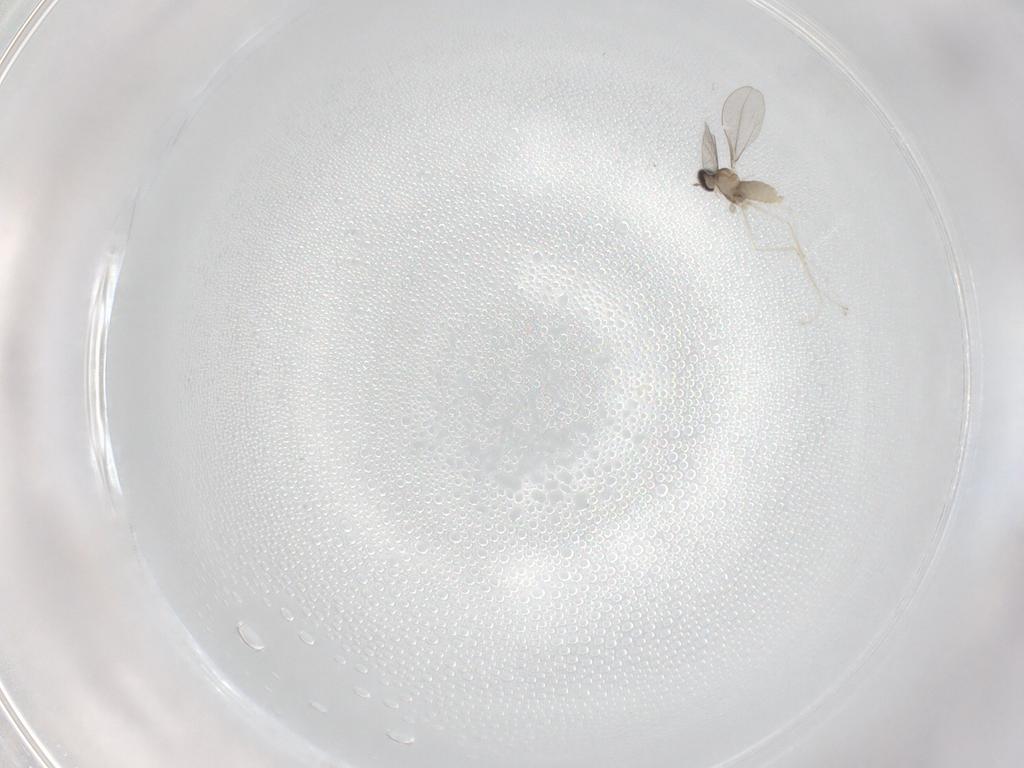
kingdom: Animalia
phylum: Arthropoda
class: Insecta
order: Diptera
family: Cecidomyiidae
